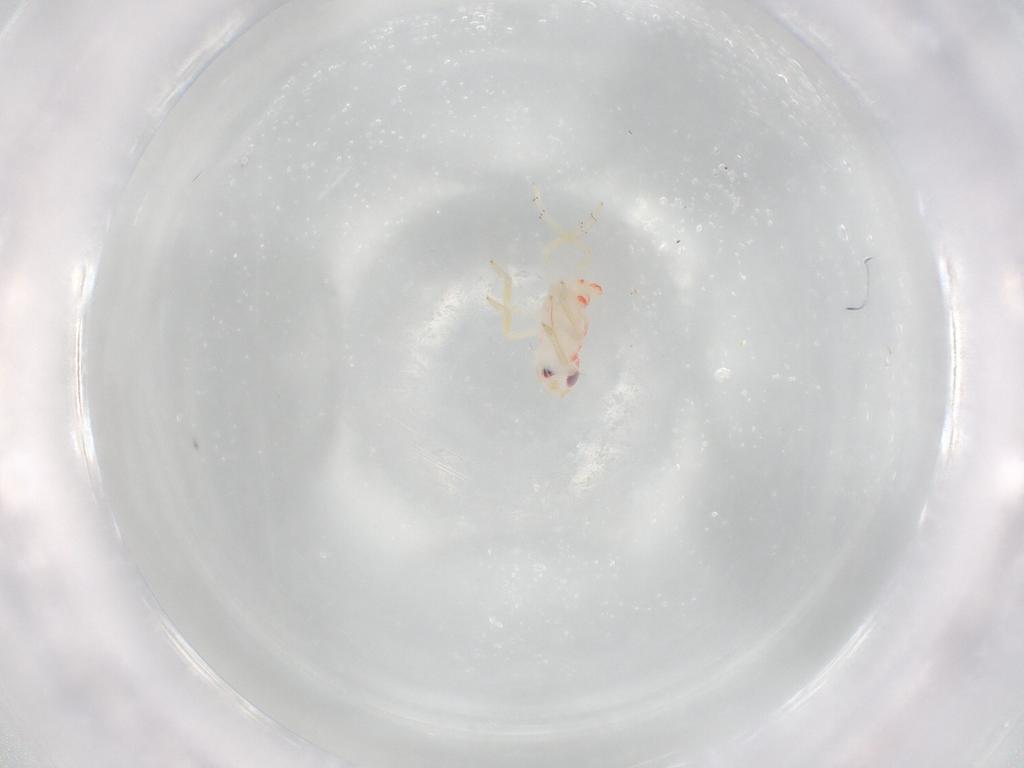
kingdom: Animalia
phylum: Arthropoda
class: Insecta
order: Hemiptera
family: Tropiduchidae
